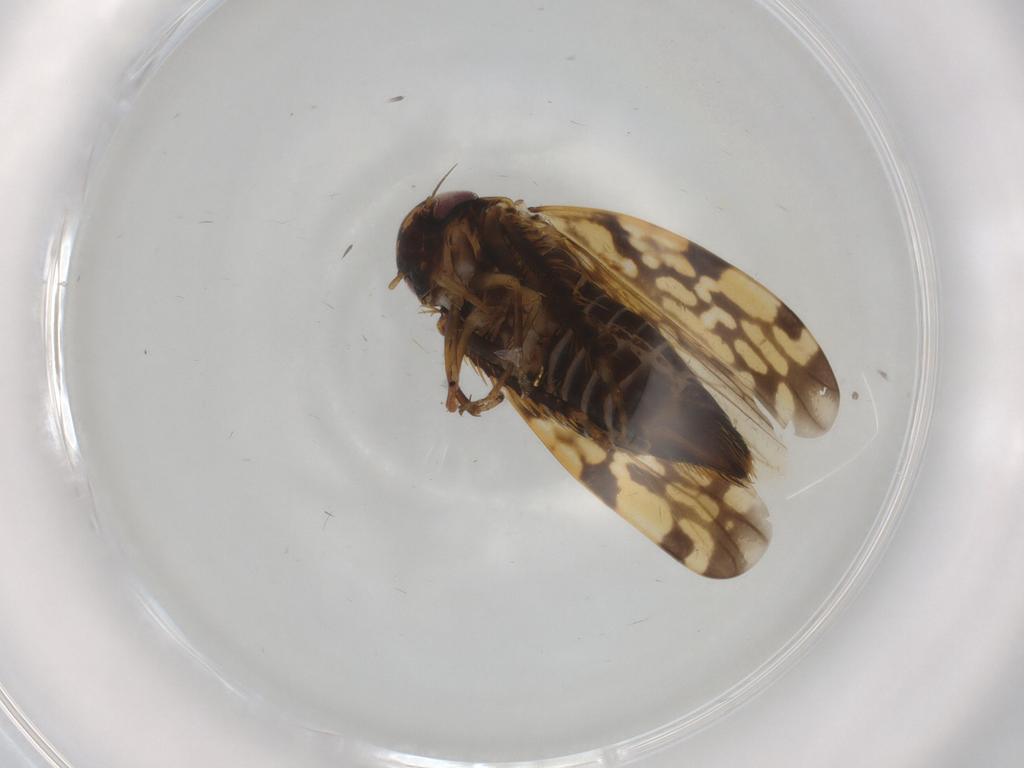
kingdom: Animalia
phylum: Arthropoda
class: Insecta
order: Hemiptera
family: Cicadellidae
